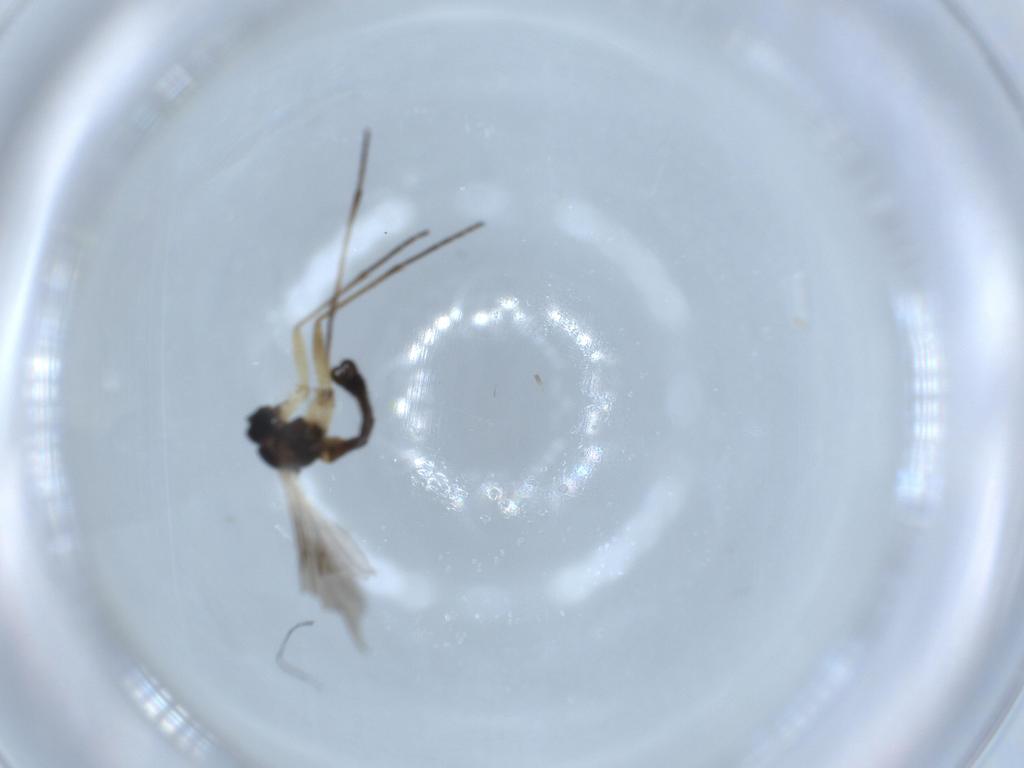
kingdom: Animalia
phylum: Arthropoda
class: Insecta
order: Diptera
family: Sciaridae
